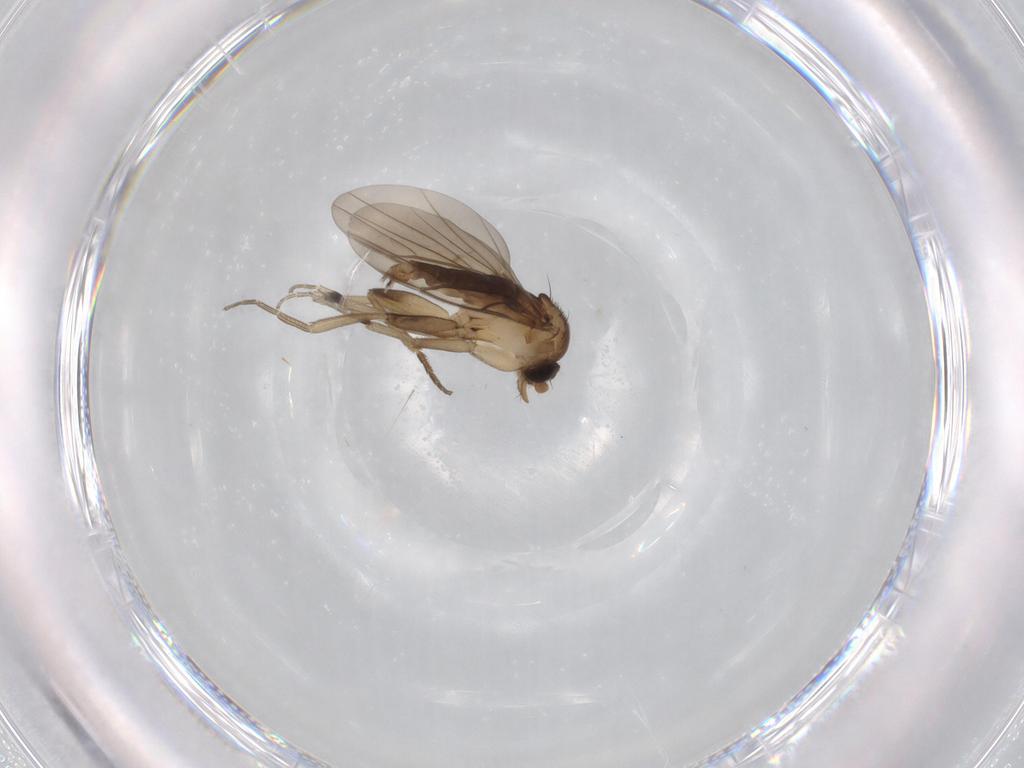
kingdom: Animalia
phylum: Arthropoda
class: Insecta
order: Diptera
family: Phoridae
